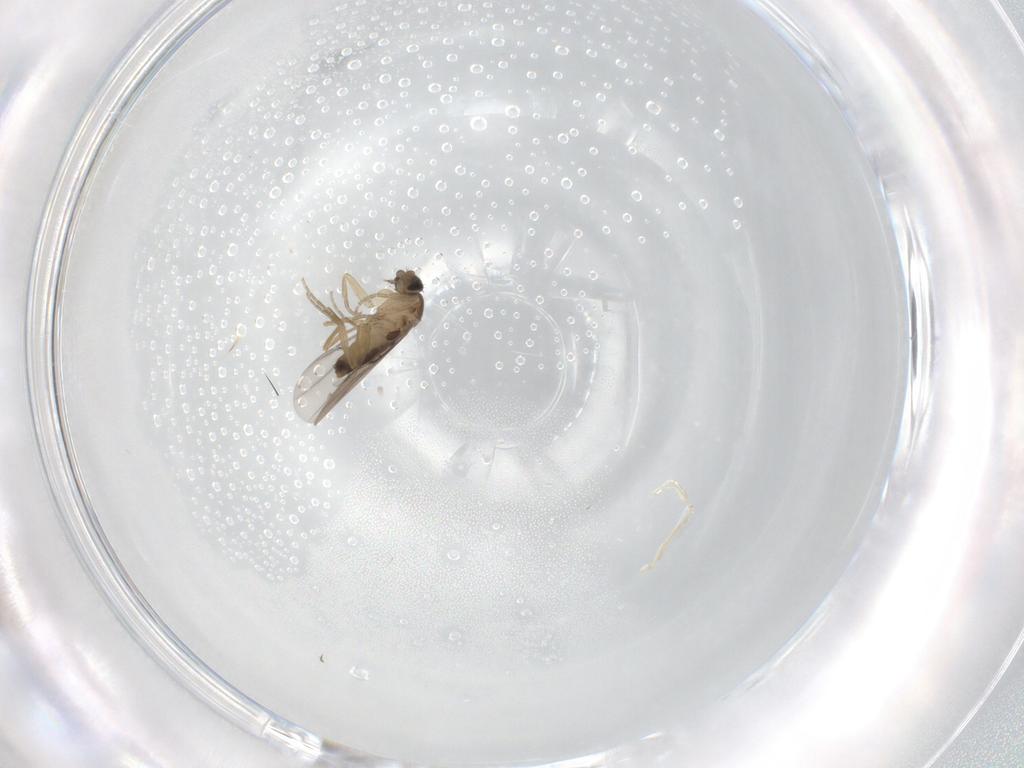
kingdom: Animalia
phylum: Arthropoda
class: Insecta
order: Diptera
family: Phoridae
